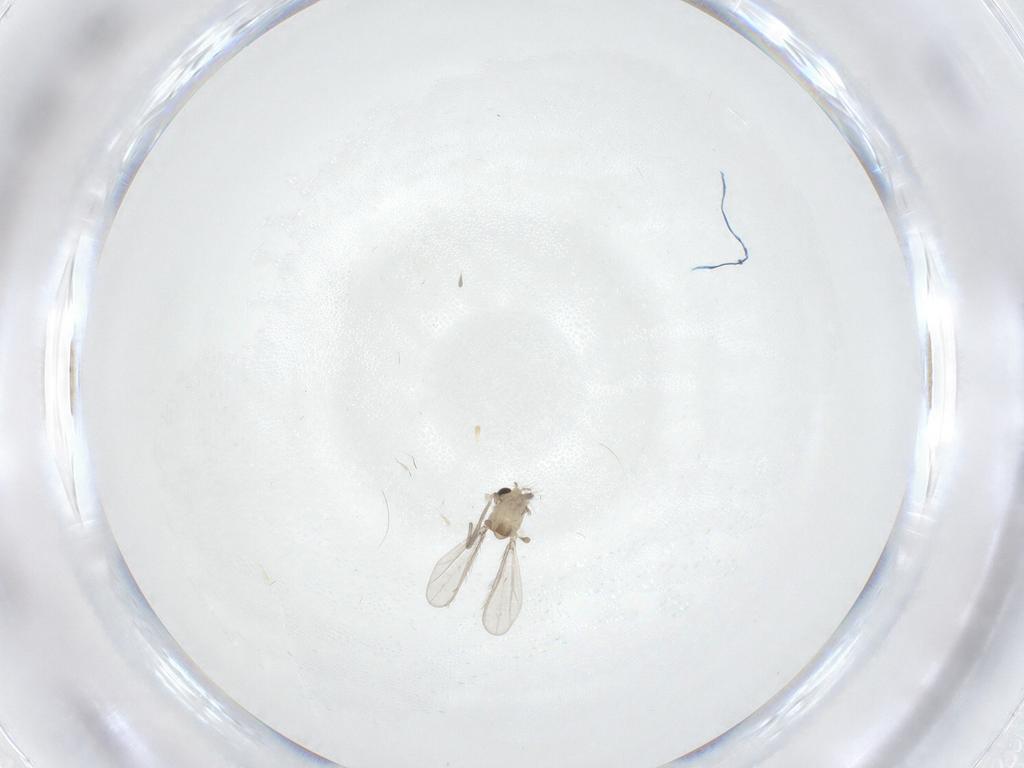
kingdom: Animalia
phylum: Arthropoda
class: Insecta
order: Diptera
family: Chironomidae
